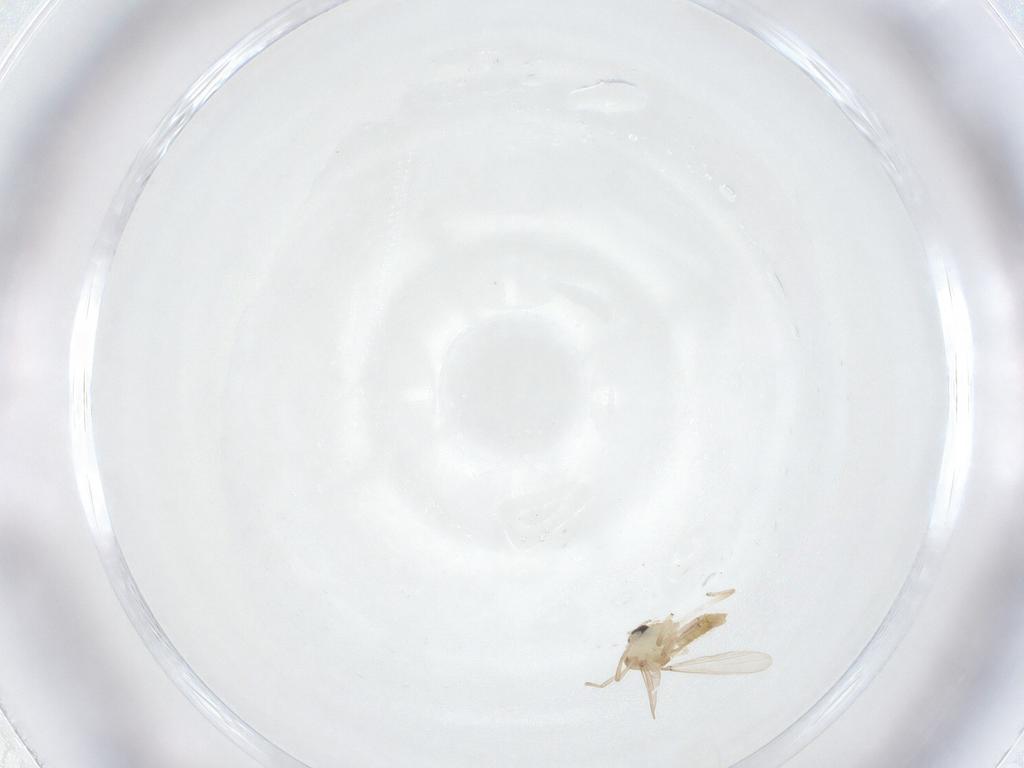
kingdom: Animalia
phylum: Arthropoda
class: Insecta
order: Diptera
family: Chironomidae
